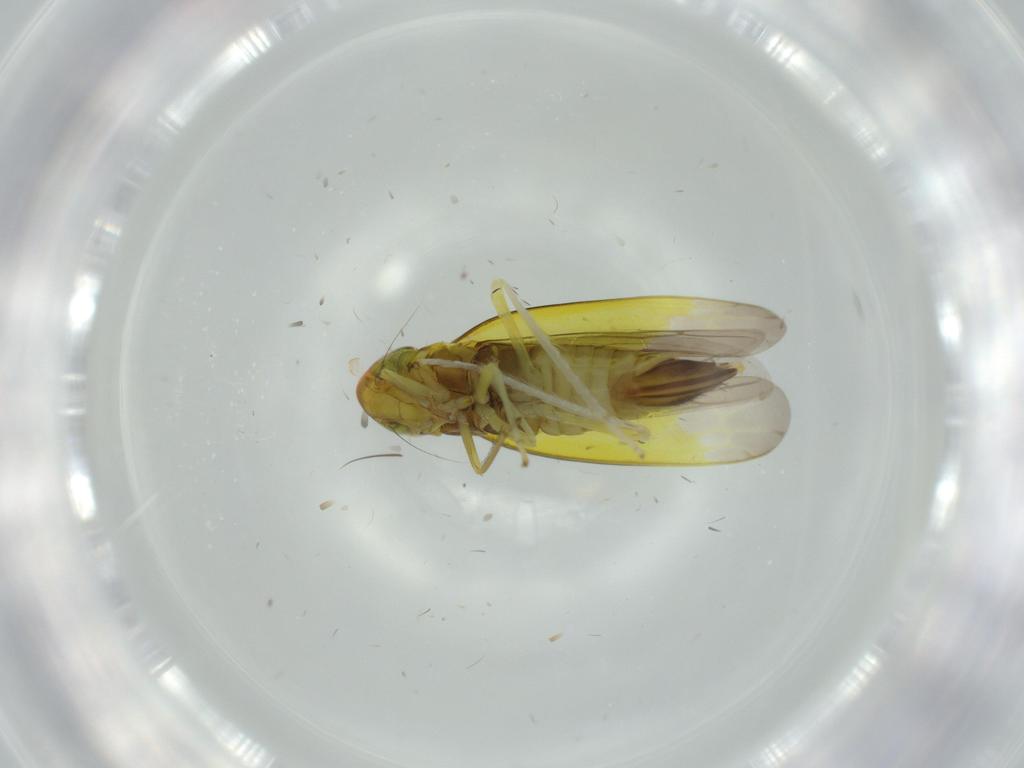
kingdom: Animalia
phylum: Arthropoda
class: Insecta
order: Hemiptera
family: Cicadellidae
